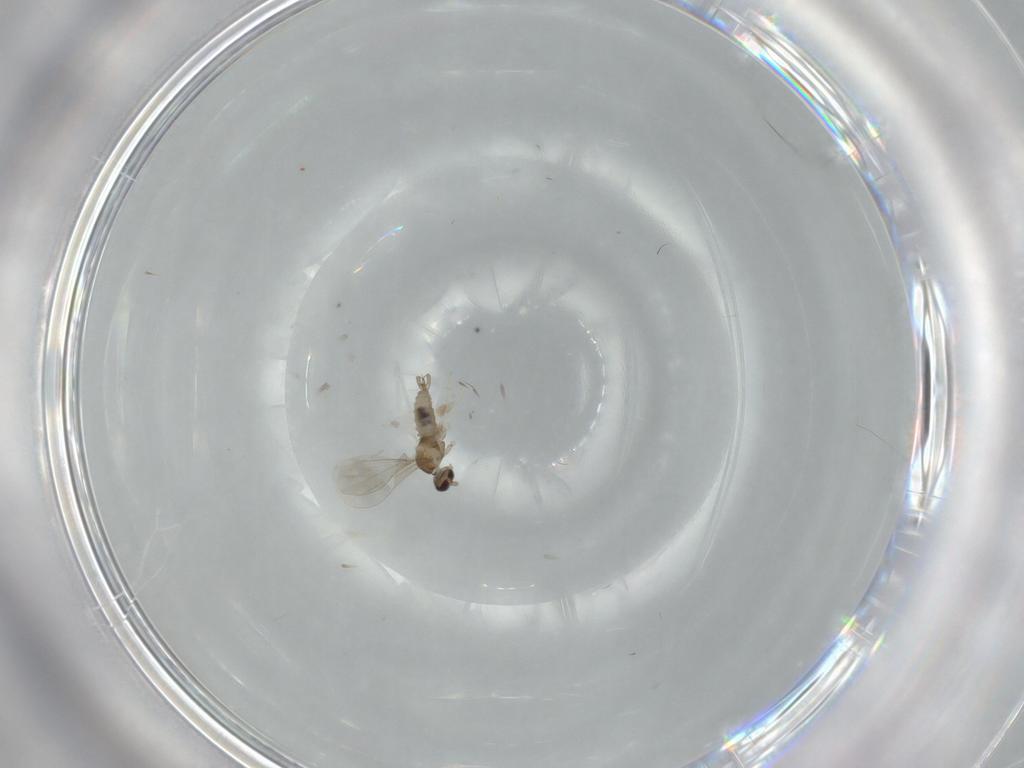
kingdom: Animalia
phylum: Arthropoda
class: Insecta
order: Diptera
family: Cecidomyiidae
